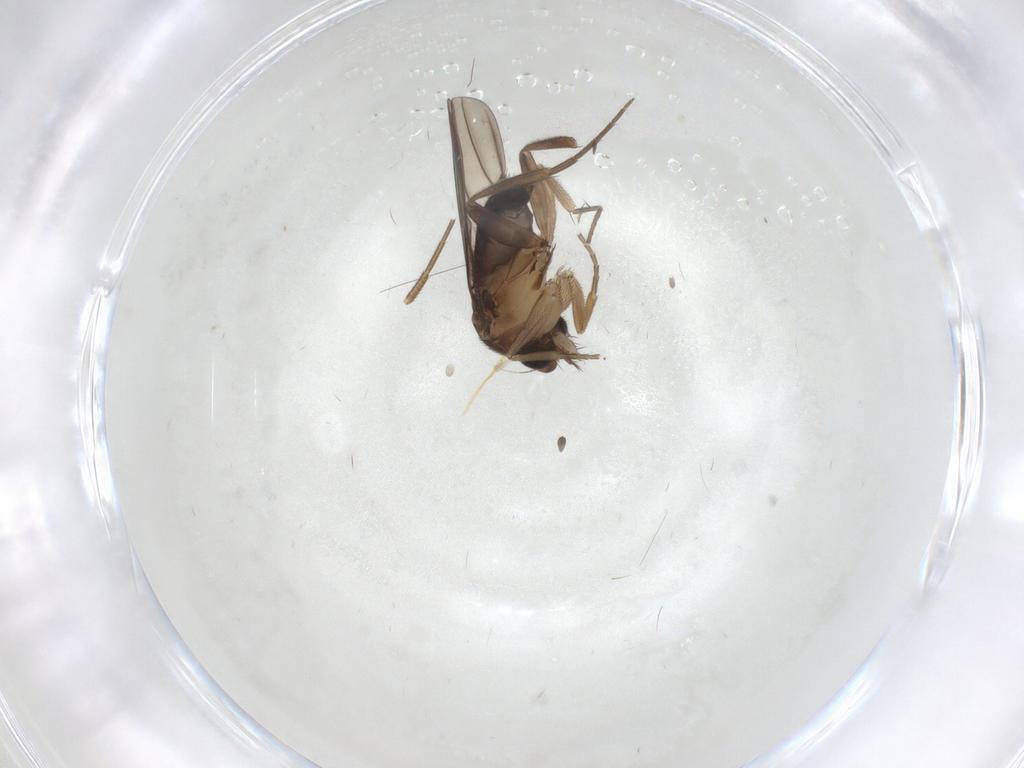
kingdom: Animalia
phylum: Arthropoda
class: Insecta
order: Diptera
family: Phoridae
